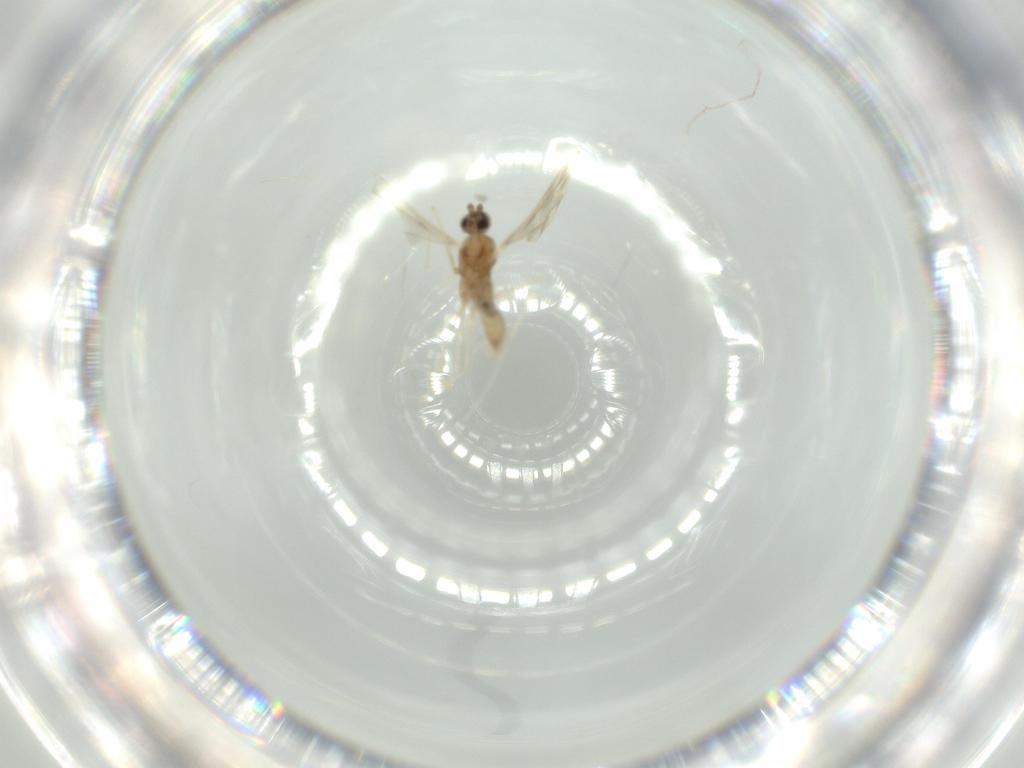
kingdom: Animalia
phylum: Arthropoda
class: Insecta
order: Diptera
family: Cecidomyiidae
